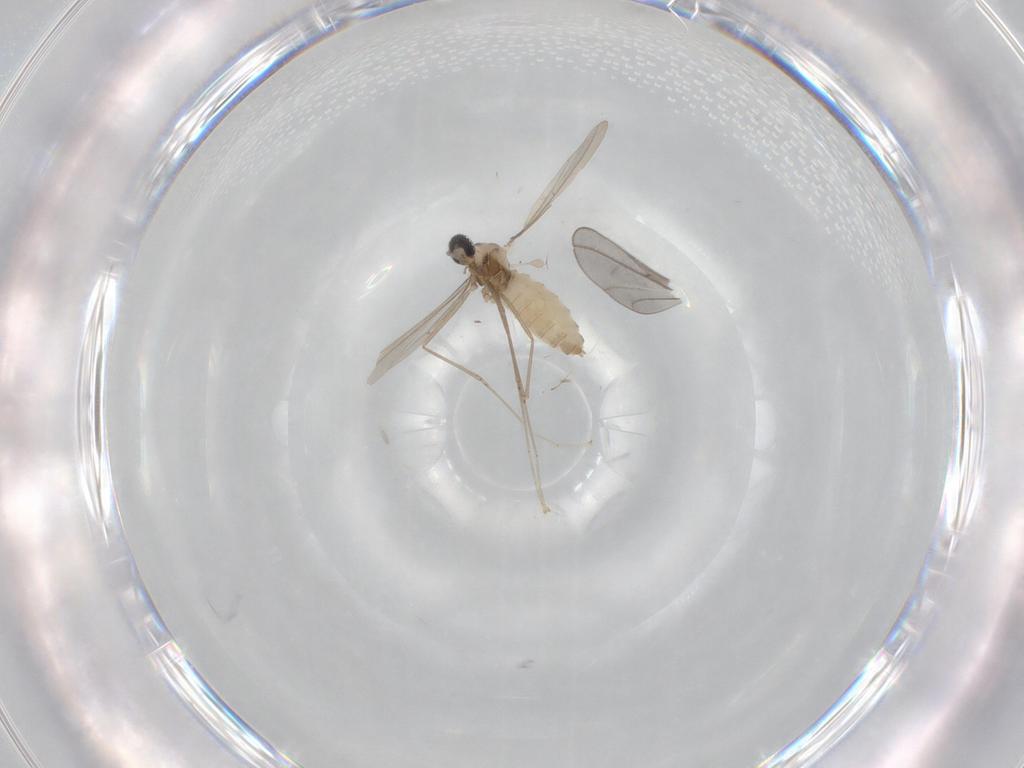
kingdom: Animalia
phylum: Arthropoda
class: Insecta
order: Diptera
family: Cecidomyiidae
